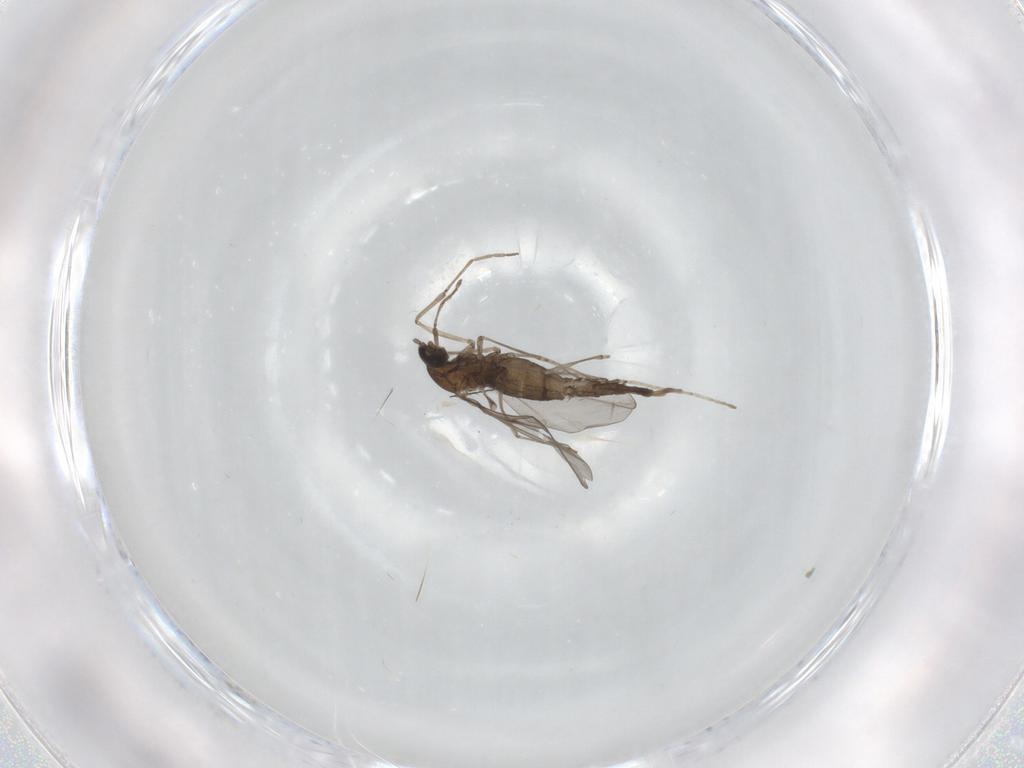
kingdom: Animalia
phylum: Arthropoda
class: Insecta
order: Diptera
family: Cecidomyiidae
